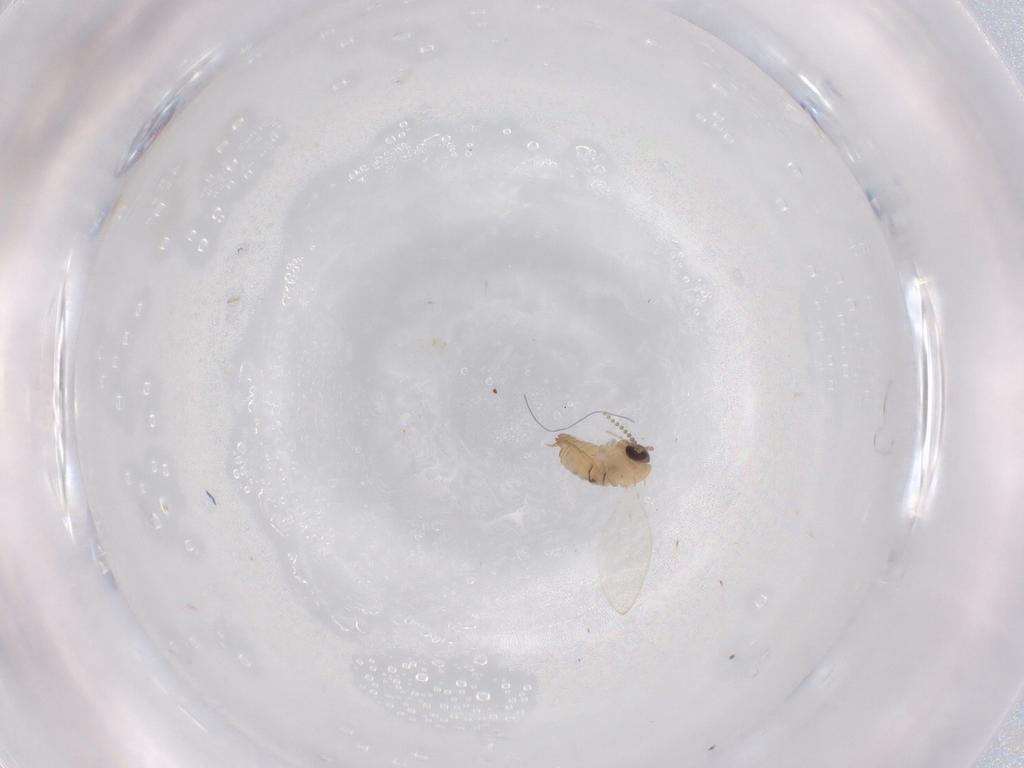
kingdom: Animalia
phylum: Arthropoda
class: Insecta
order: Diptera
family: Psychodidae
